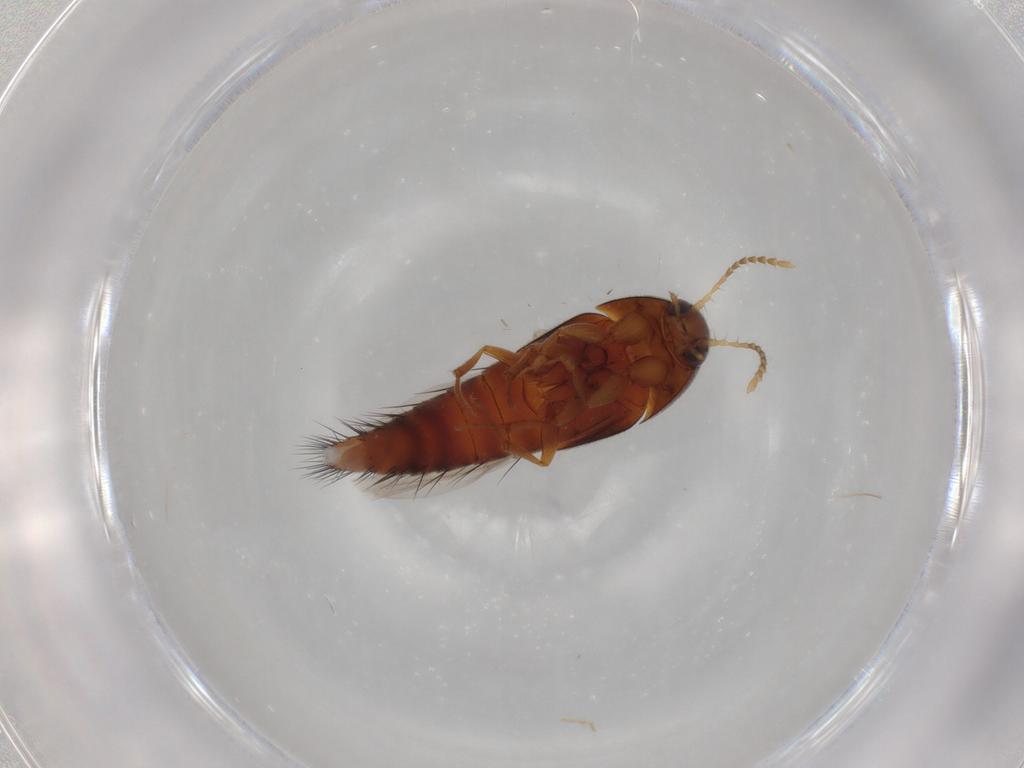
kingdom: Animalia
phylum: Arthropoda
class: Insecta
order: Coleoptera
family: Staphylinidae
